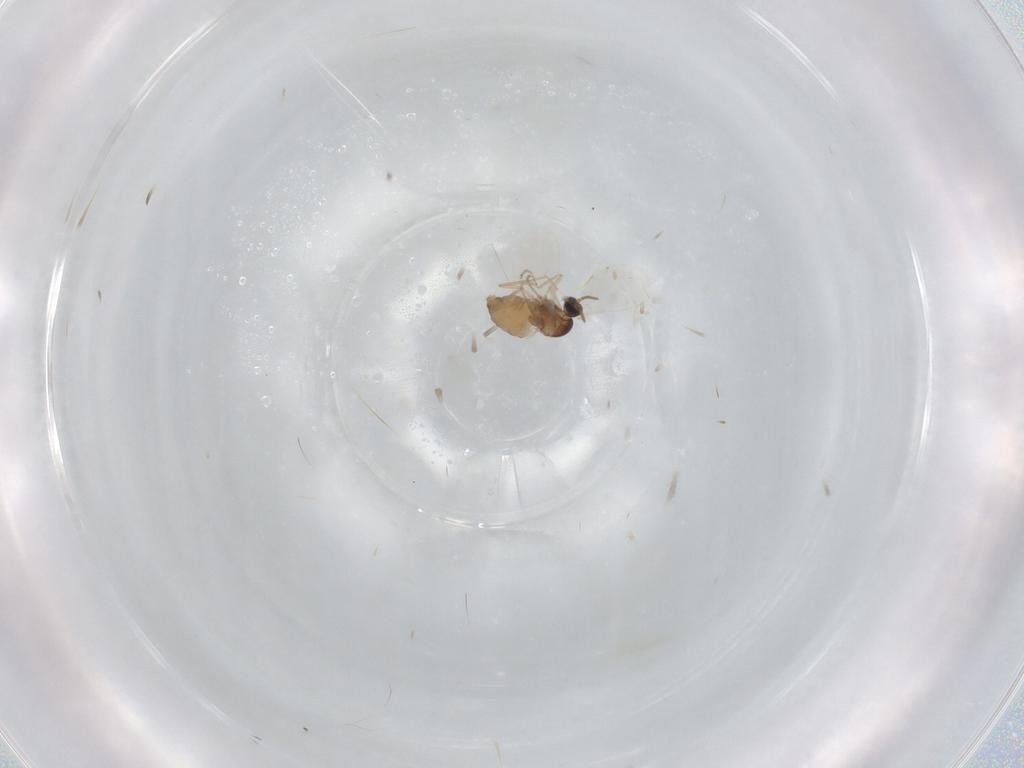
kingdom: Animalia
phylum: Arthropoda
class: Insecta
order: Diptera
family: Cecidomyiidae
